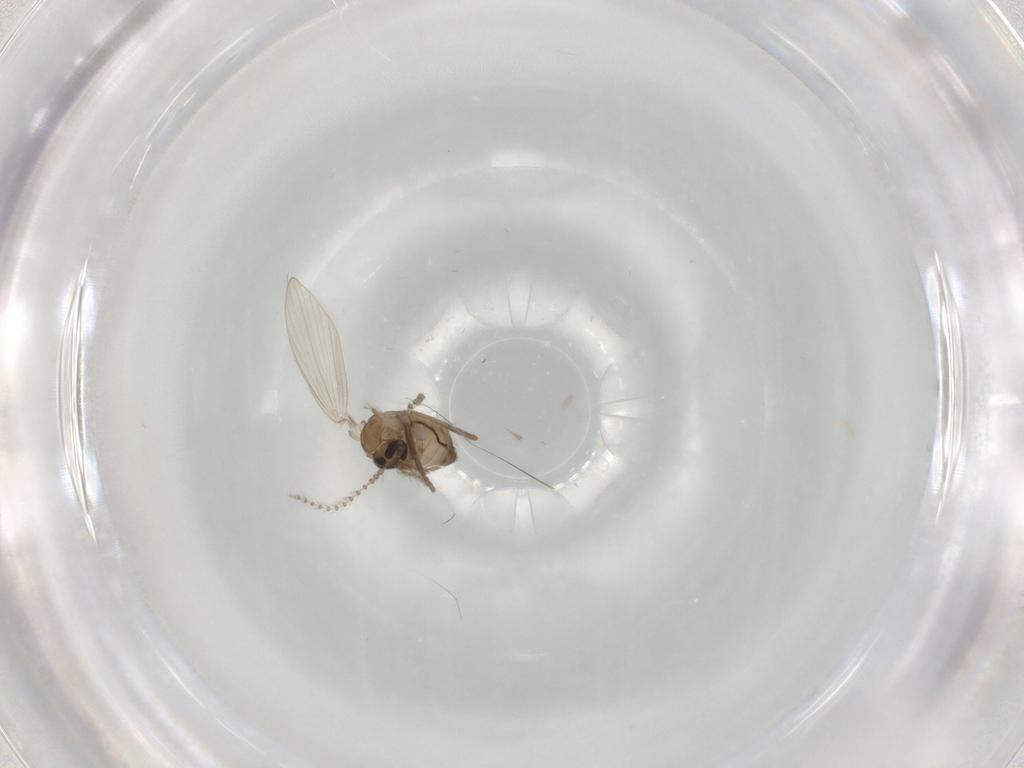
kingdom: Animalia
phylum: Arthropoda
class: Insecta
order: Diptera
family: Psychodidae
